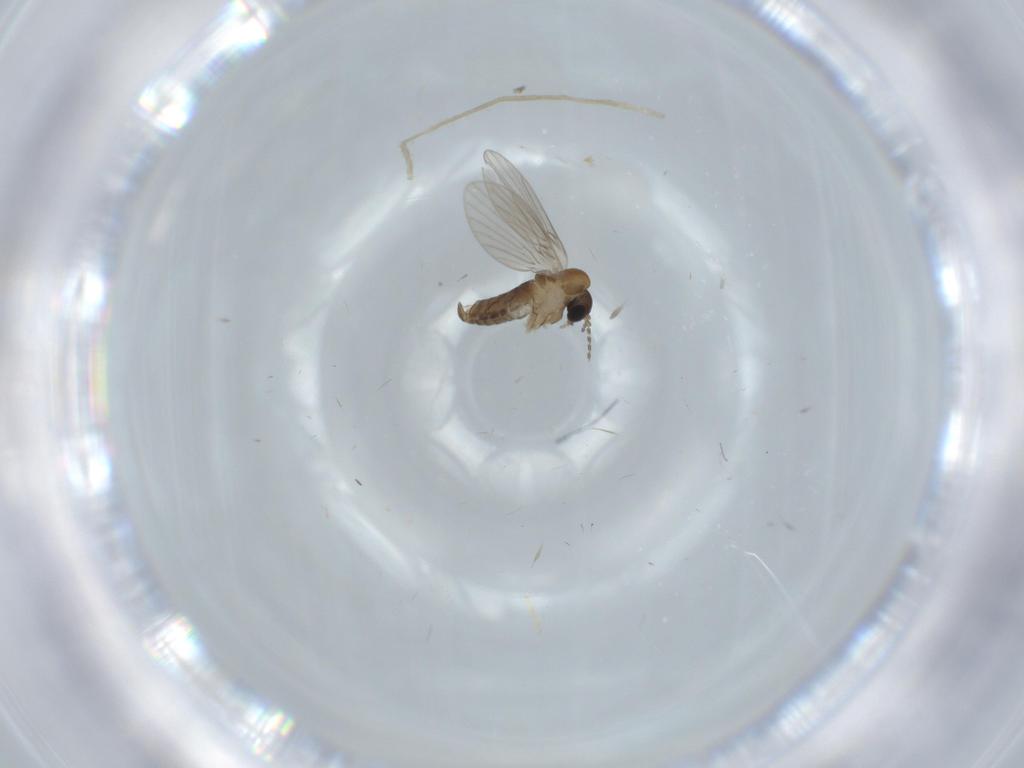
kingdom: Animalia
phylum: Arthropoda
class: Insecta
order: Diptera
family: Psychodidae
